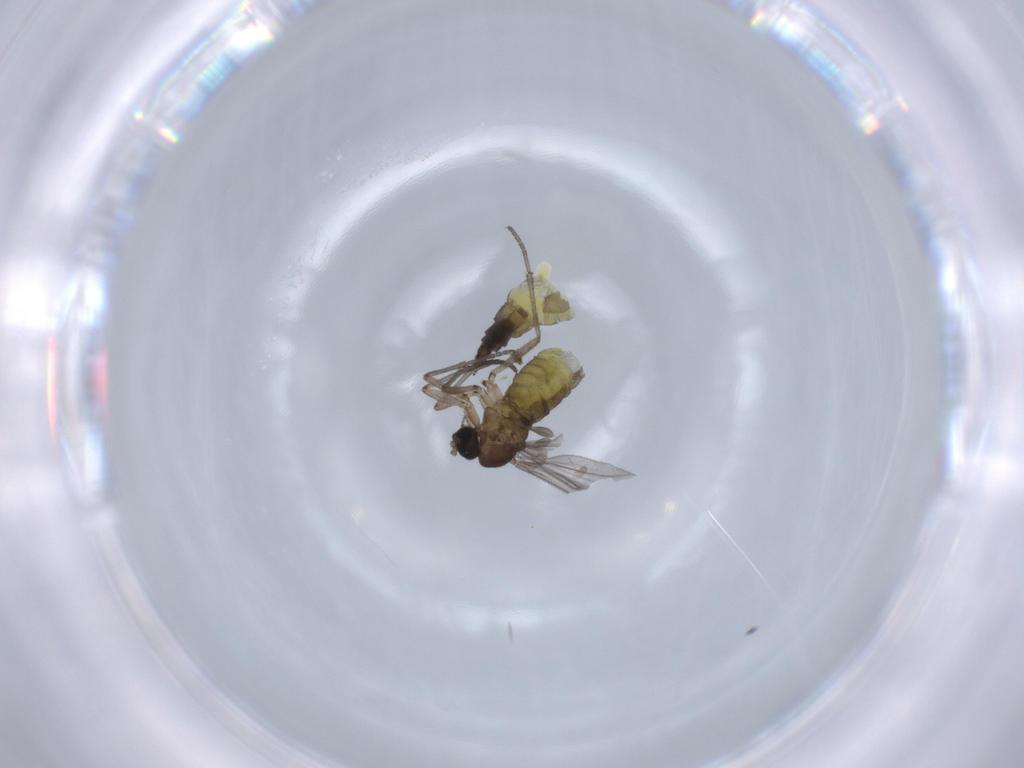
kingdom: Animalia
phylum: Arthropoda
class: Insecta
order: Diptera
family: Sciaridae
